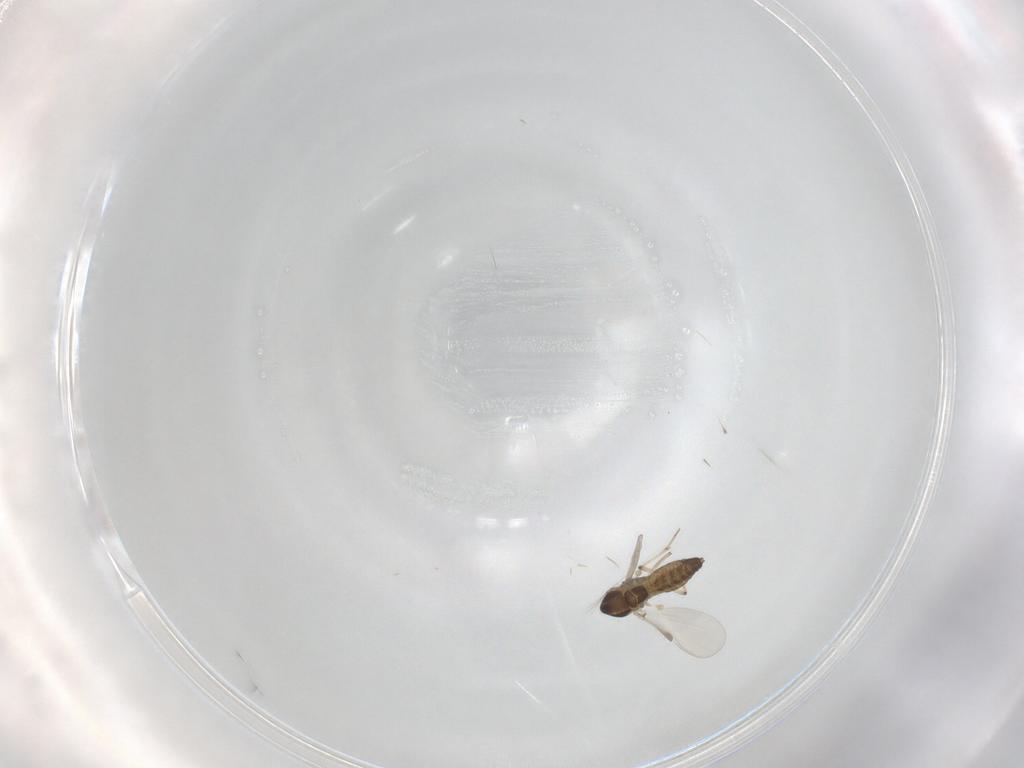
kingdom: Animalia
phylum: Arthropoda
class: Insecta
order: Diptera
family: Chironomidae
